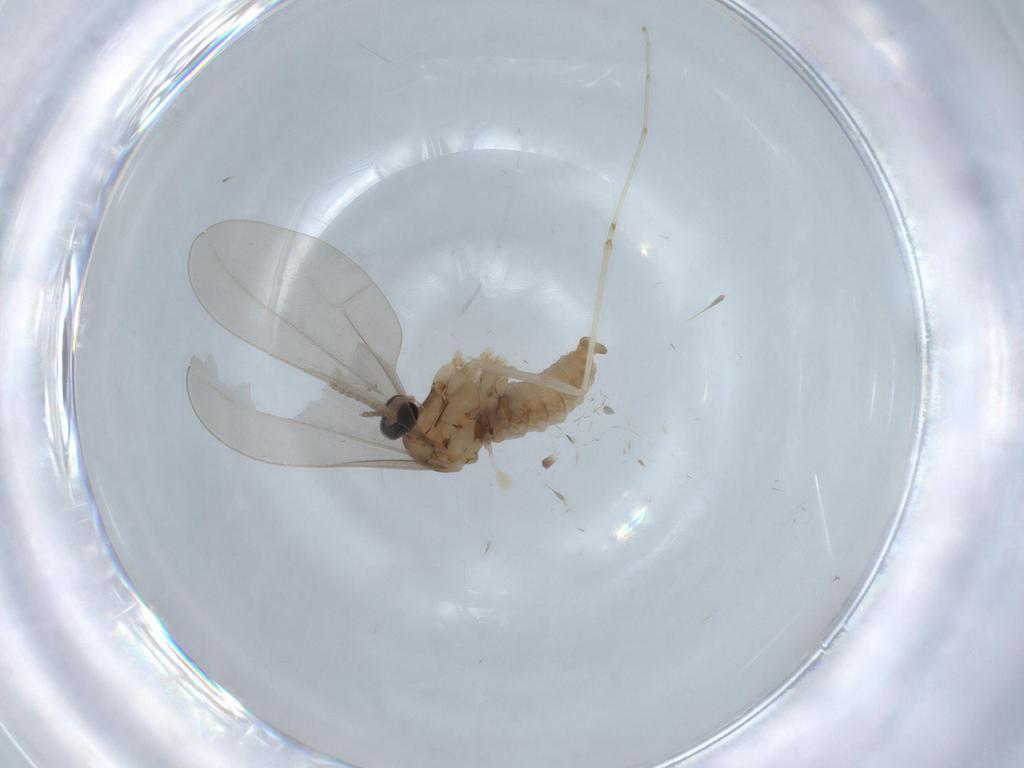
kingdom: Animalia
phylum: Arthropoda
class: Insecta
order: Diptera
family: Cecidomyiidae
